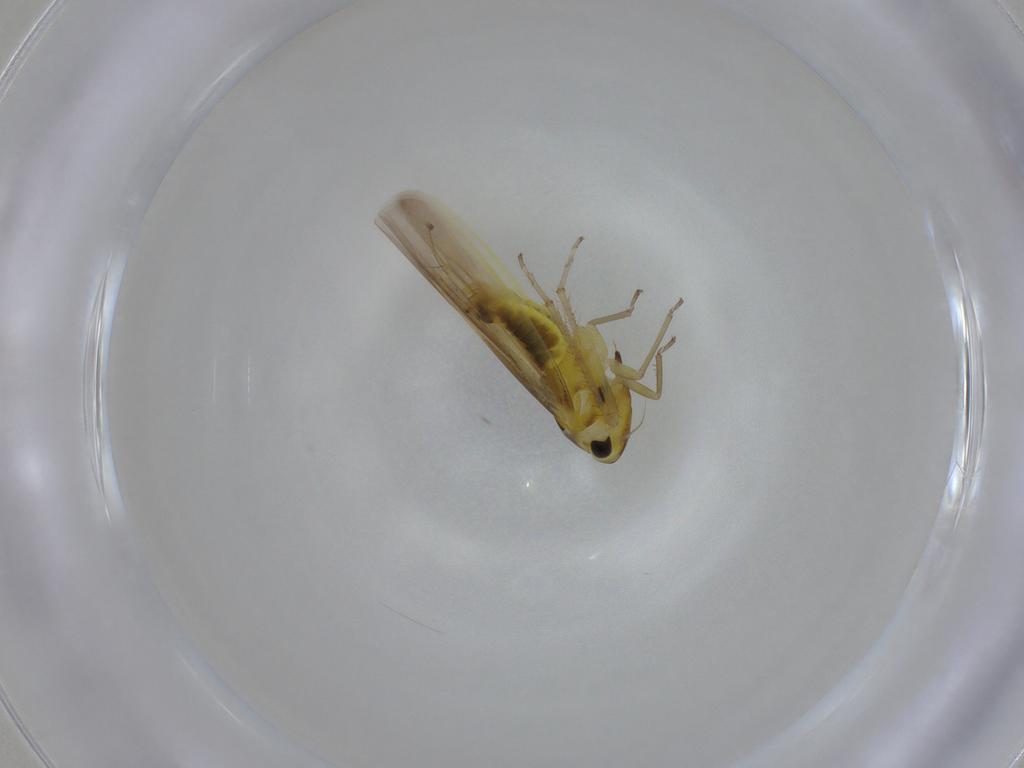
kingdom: Animalia
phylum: Arthropoda
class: Insecta
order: Hemiptera
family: Cicadellidae
